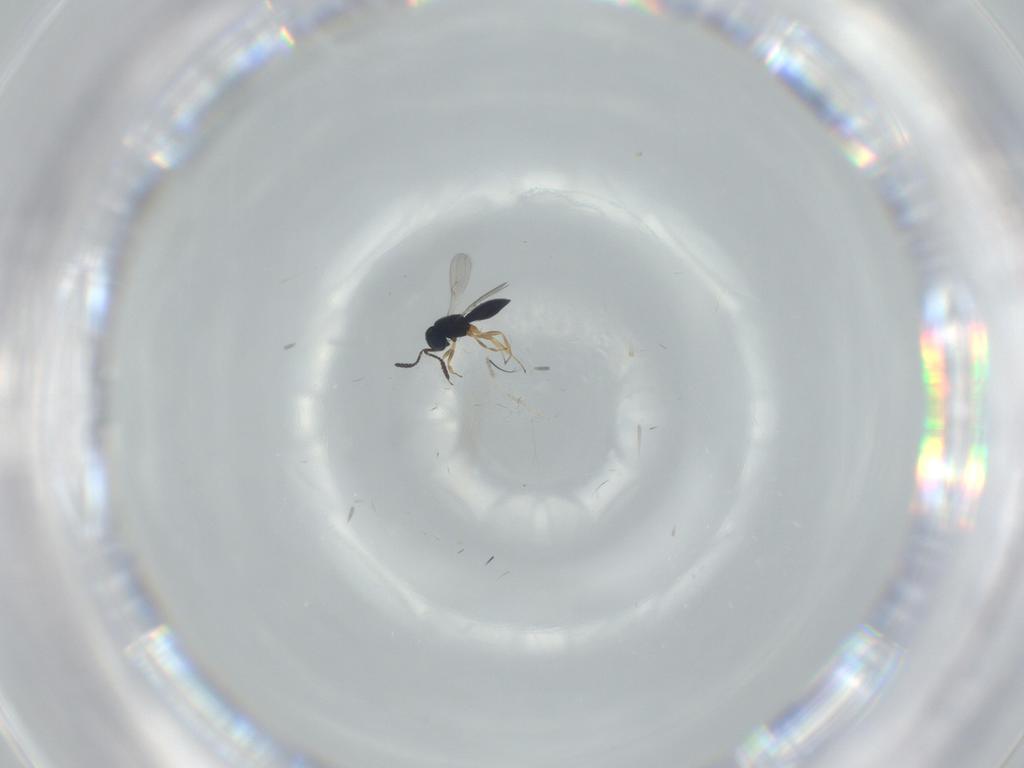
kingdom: Animalia
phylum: Arthropoda
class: Insecta
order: Hymenoptera
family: Scelionidae
